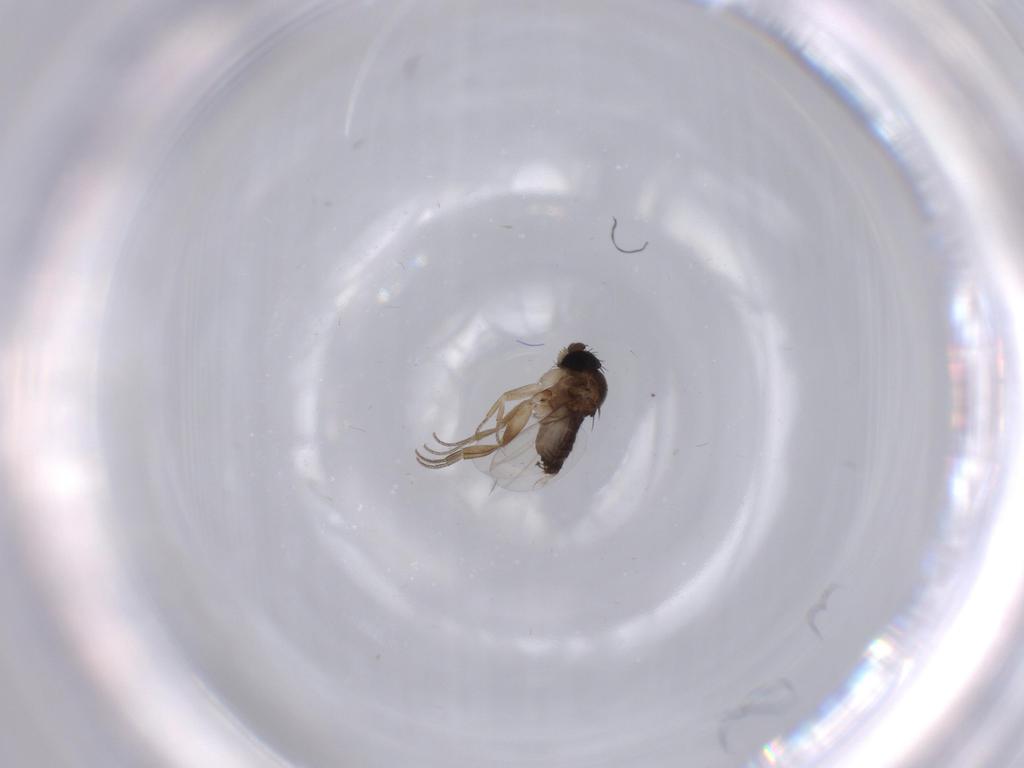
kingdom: Animalia
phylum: Arthropoda
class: Insecta
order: Diptera
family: Phoridae
